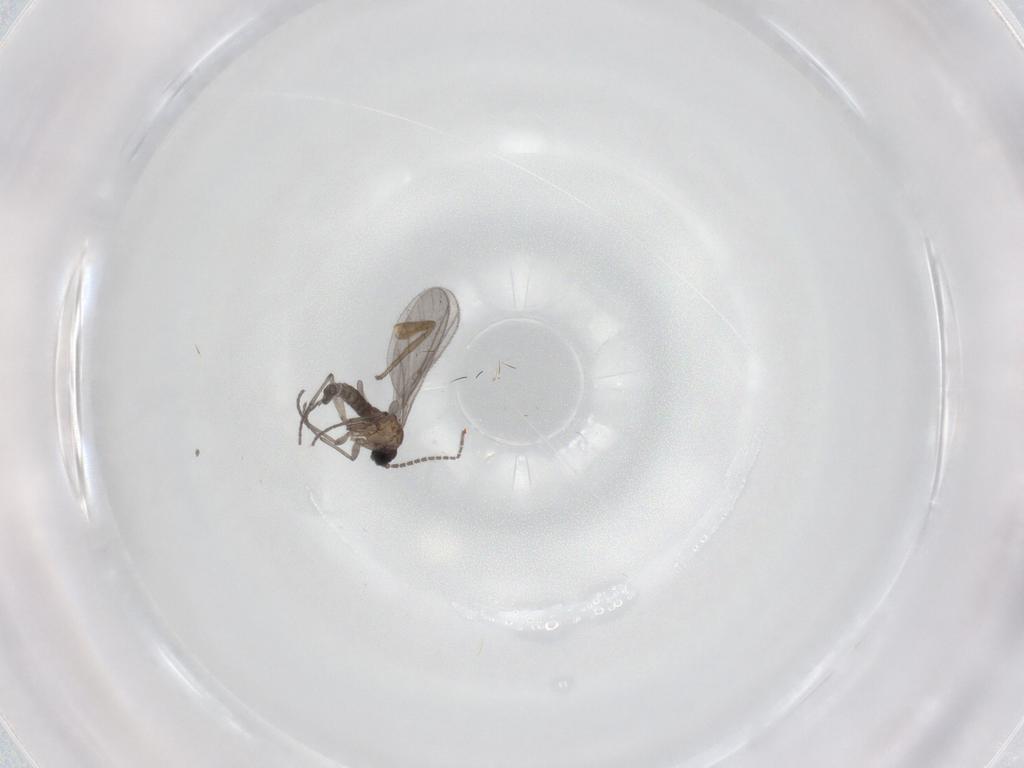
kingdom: Animalia
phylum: Arthropoda
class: Insecta
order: Diptera
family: Sciaridae
